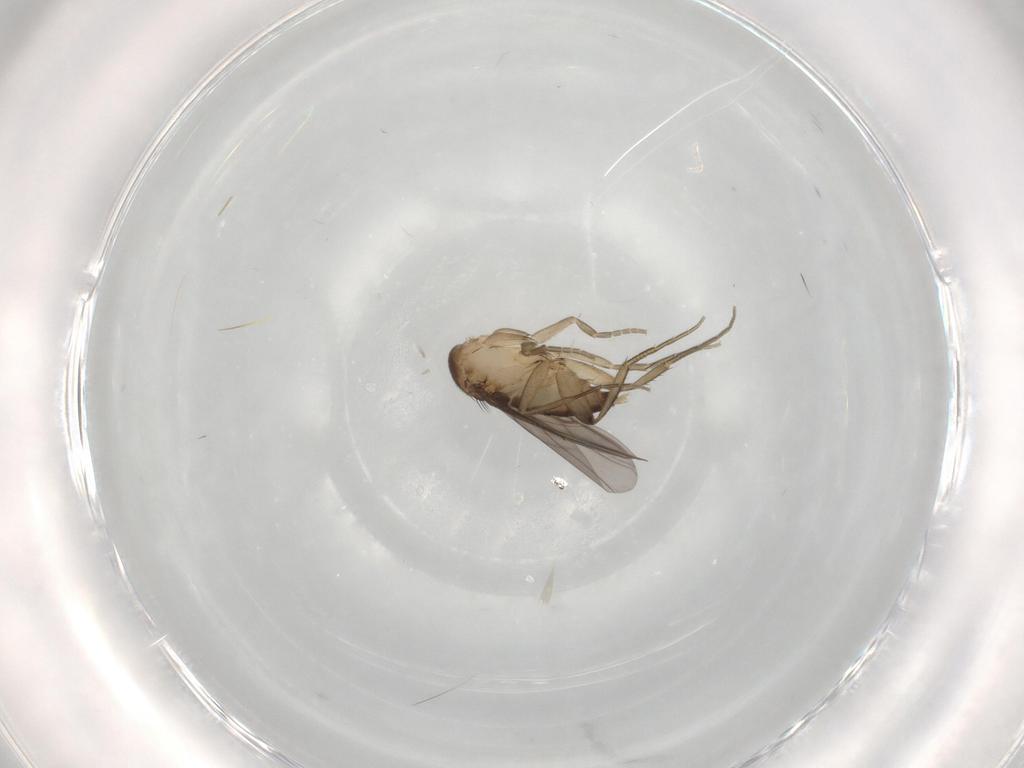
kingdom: Animalia
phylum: Arthropoda
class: Insecta
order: Diptera
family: Phoridae
